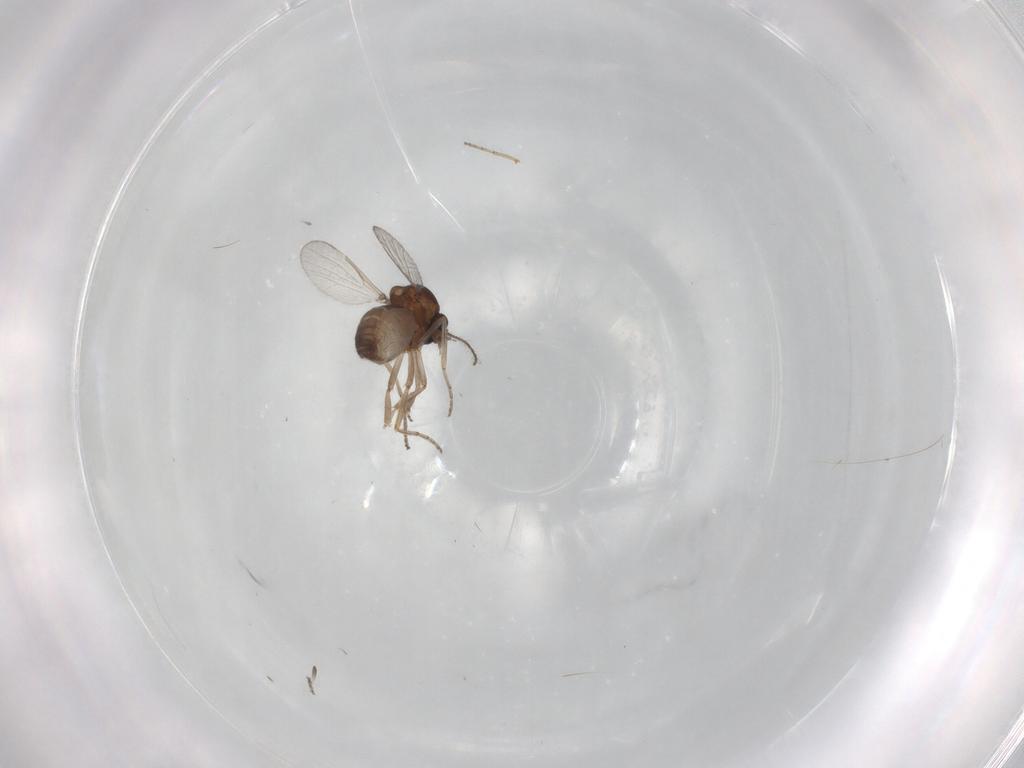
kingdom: Animalia
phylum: Arthropoda
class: Insecta
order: Diptera
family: Ceratopogonidae
